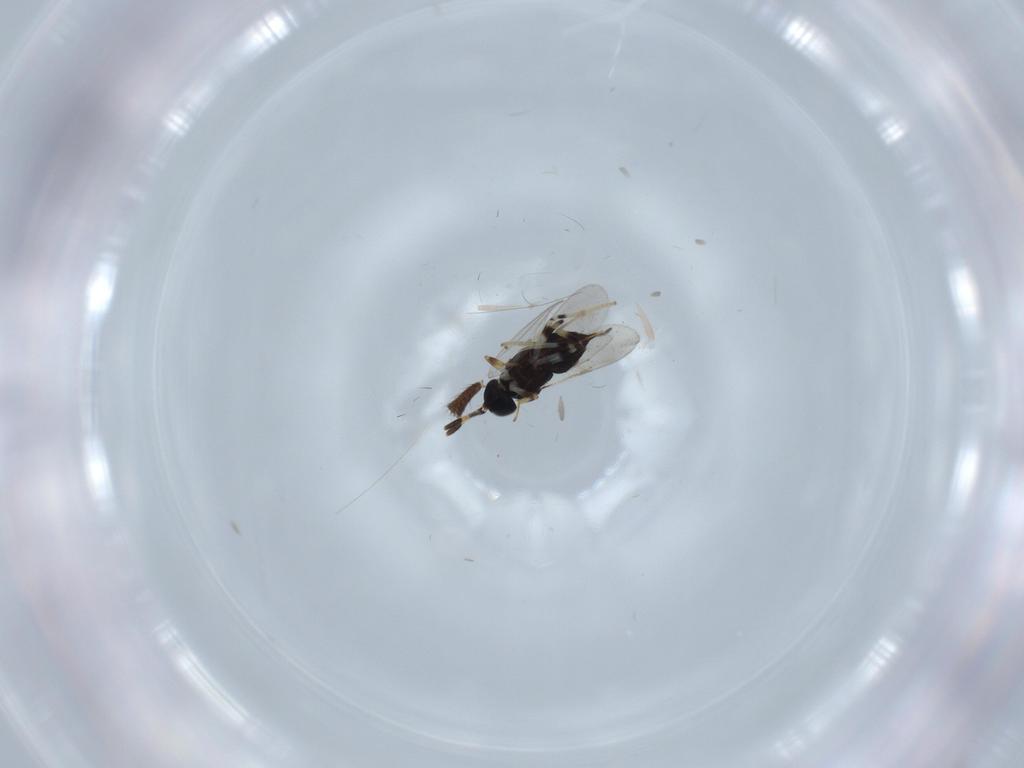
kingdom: Animalia
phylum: Arthropoda
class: Insecta
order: Hymenoptera
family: Encyrtidae
